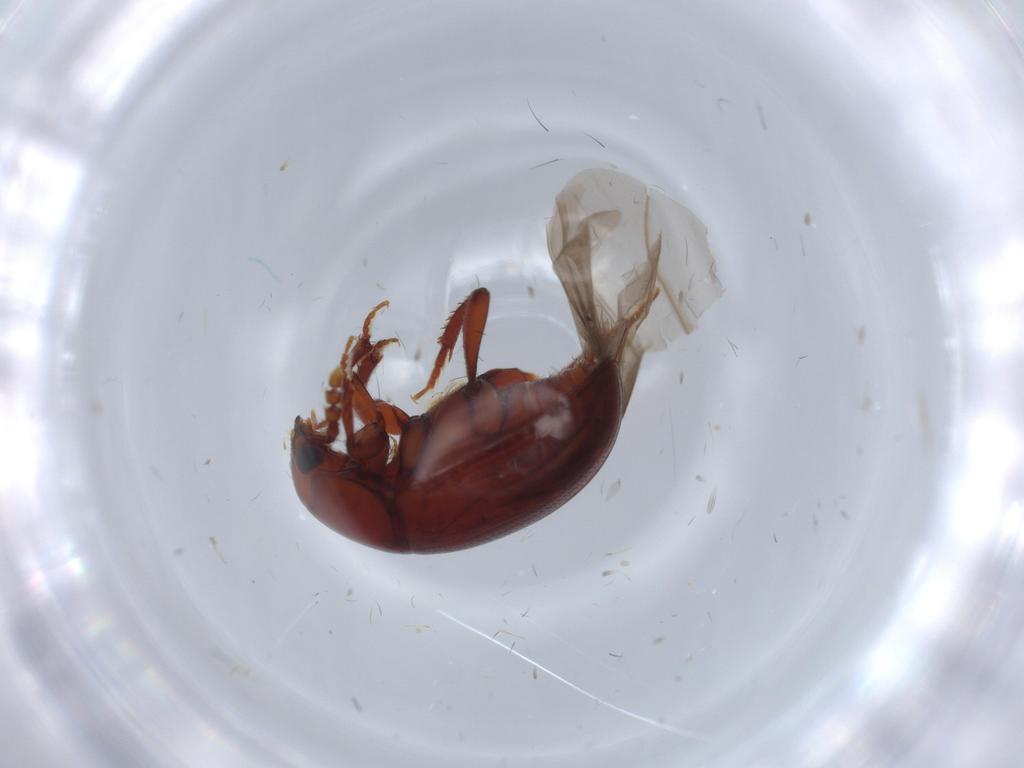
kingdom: Animalia
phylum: Arthropoda
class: Insecta
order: Coleoptera
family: Leiodidae
